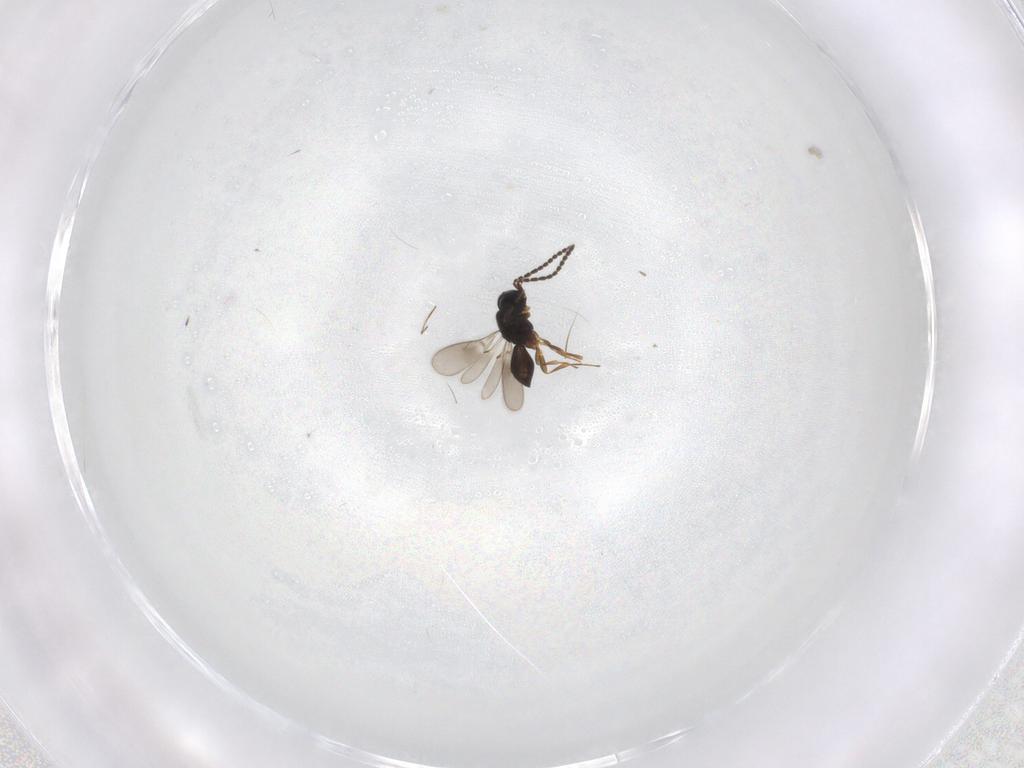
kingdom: Animalia
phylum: Arthropoda
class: Insecta
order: Hymenoptera
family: Scelionidae
